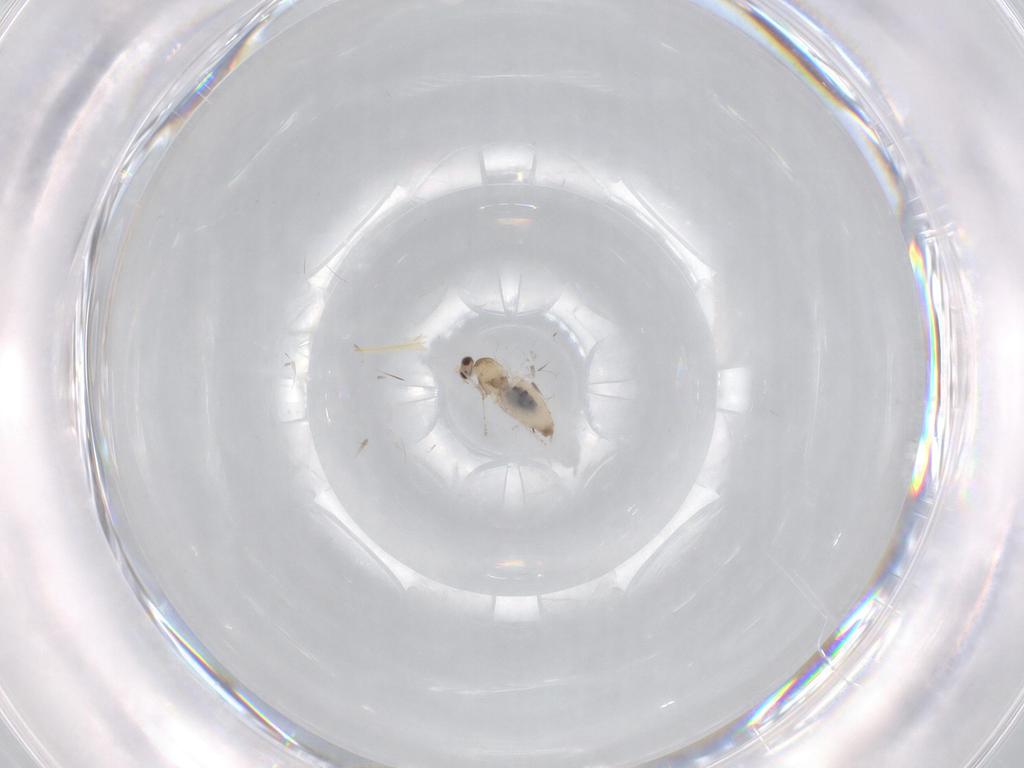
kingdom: Animalia
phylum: Arthropoda
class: Insecta
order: Diptera
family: Cecidomyiidae
